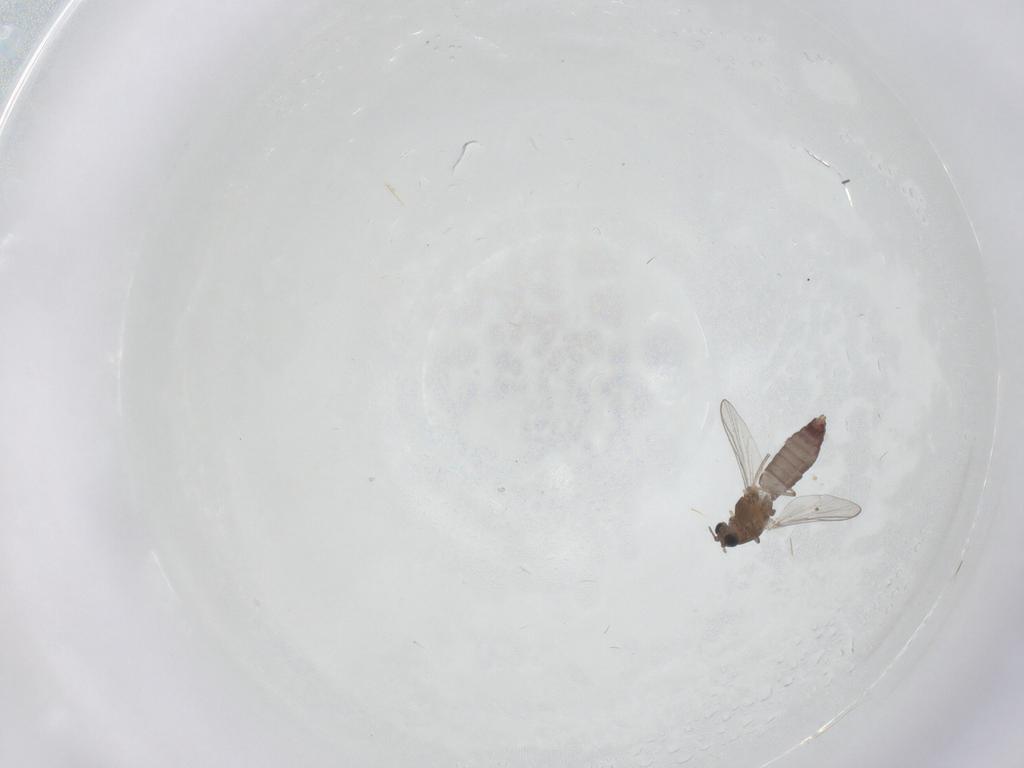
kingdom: Animalia
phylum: Arthropoda
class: Insecta
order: Diptera
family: Chironomidae
